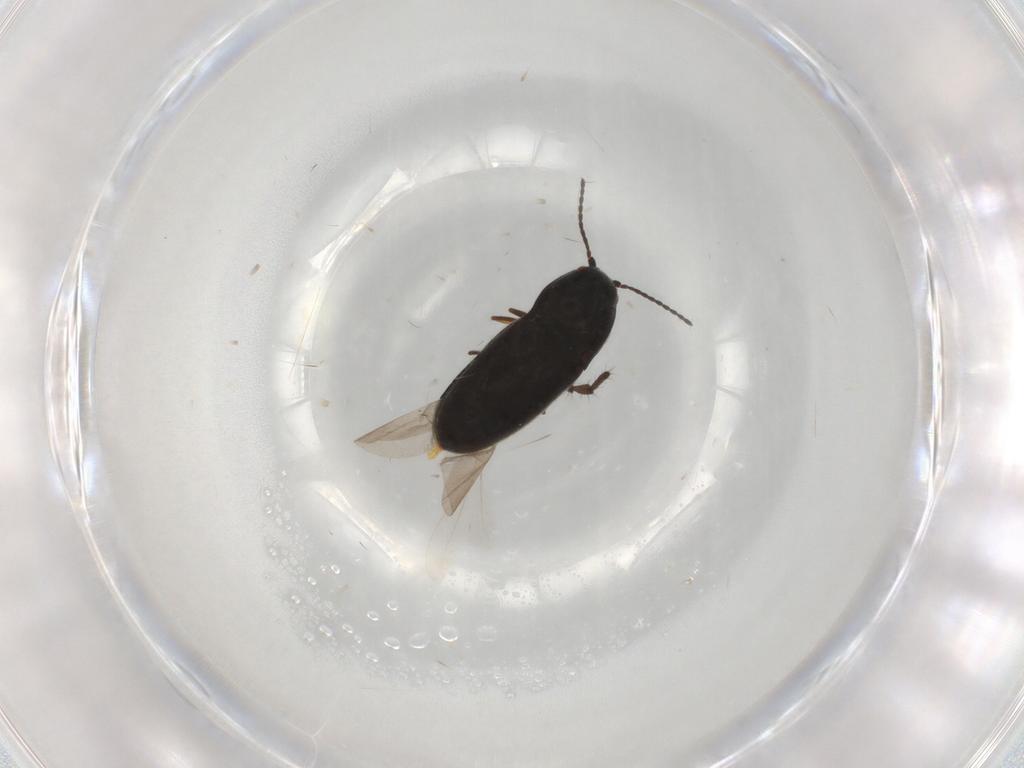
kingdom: Animalia
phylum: Arthropoda
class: Insecta
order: Coleoptera
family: Elateridae
